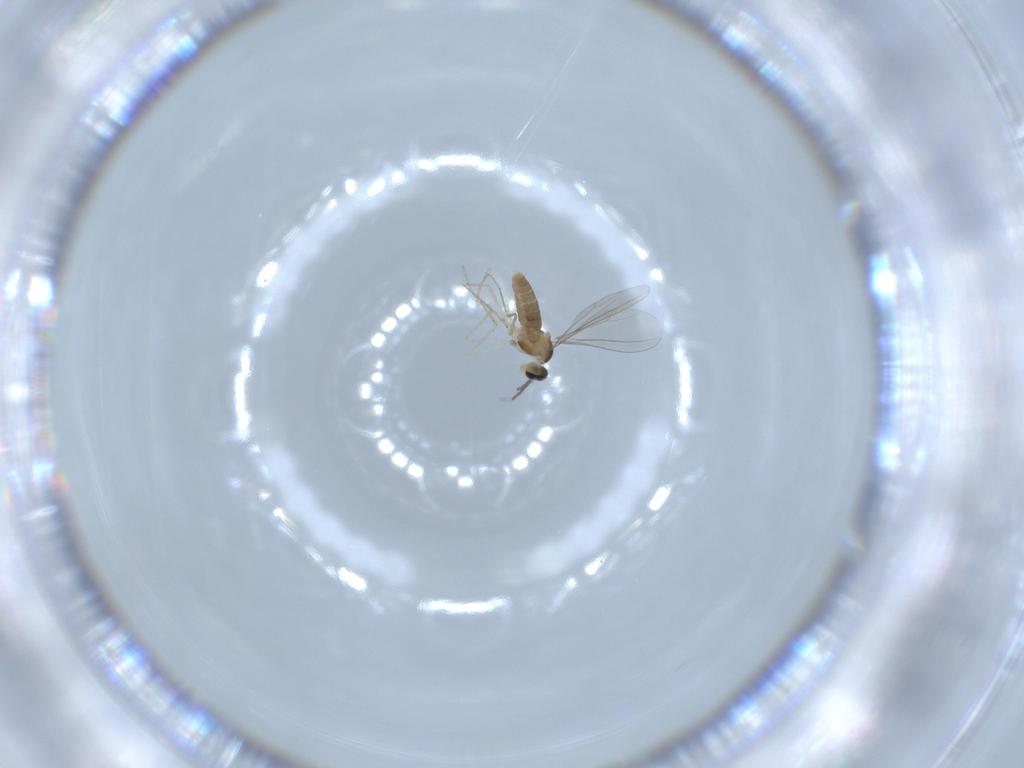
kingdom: Animalia
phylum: Arthropoda
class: Insecta
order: Diptera
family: Cecidomyiidae
